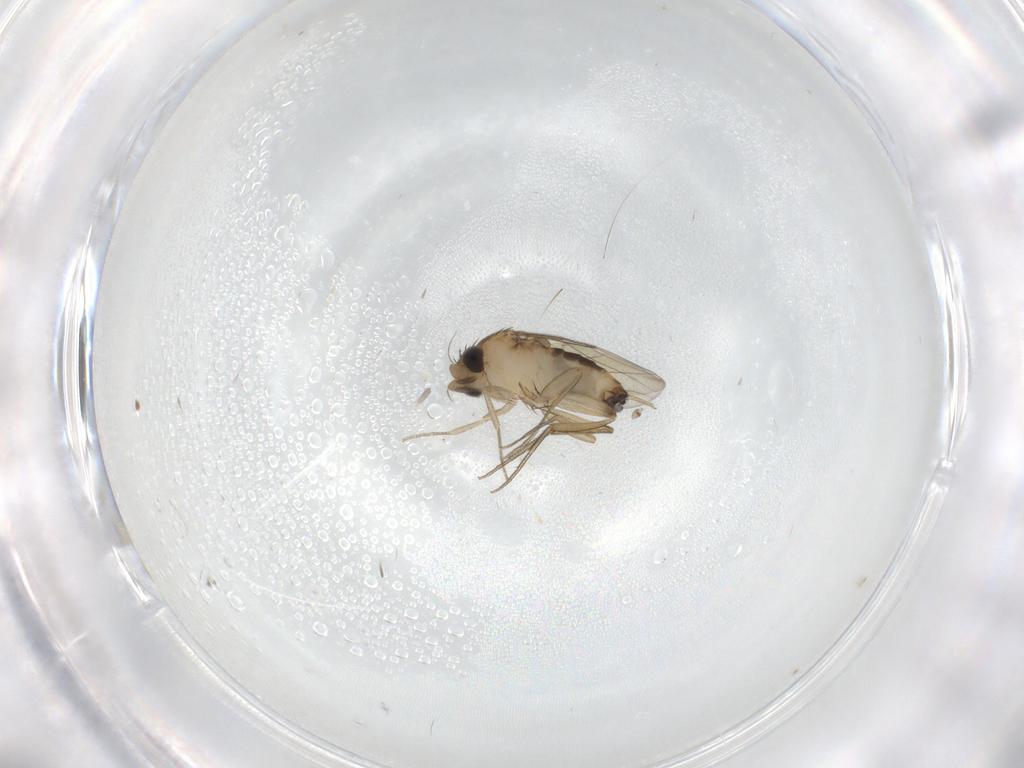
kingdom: Animalia
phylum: Arthropoda
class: Insecta
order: Diptera
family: Phoridae
